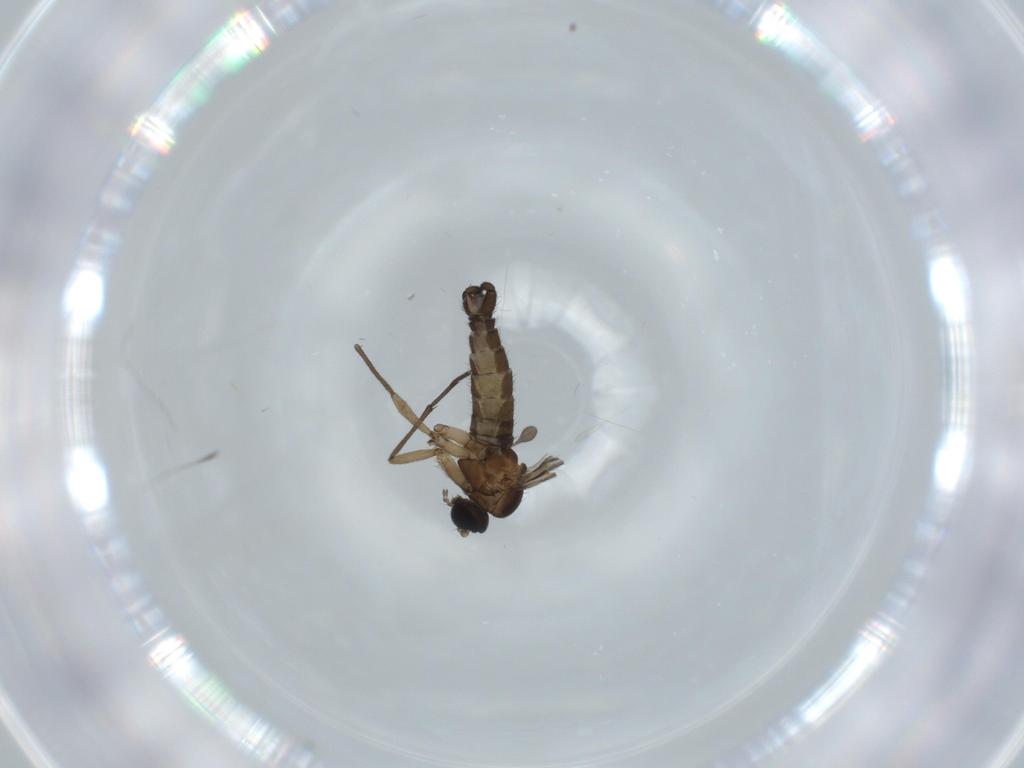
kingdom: Animalia
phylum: Arthropoda
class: Insecta
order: Diptera
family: Sciaridae
